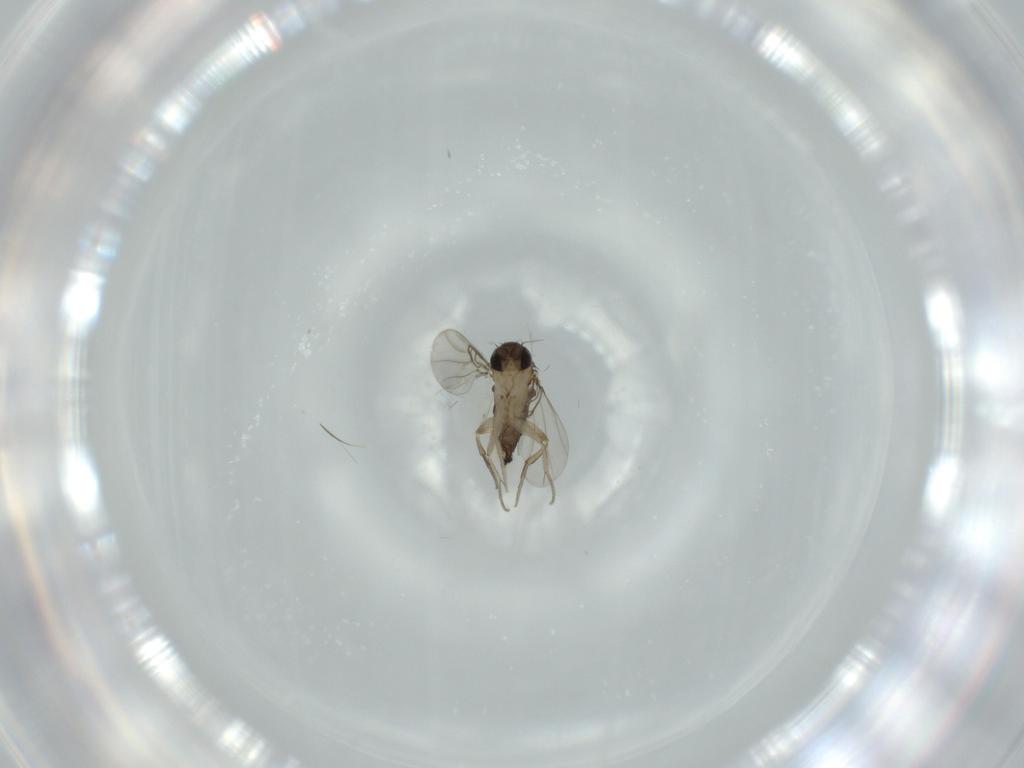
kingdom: Animalia
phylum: Arthropoda
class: Insecta
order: Diptera
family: Phoridae
